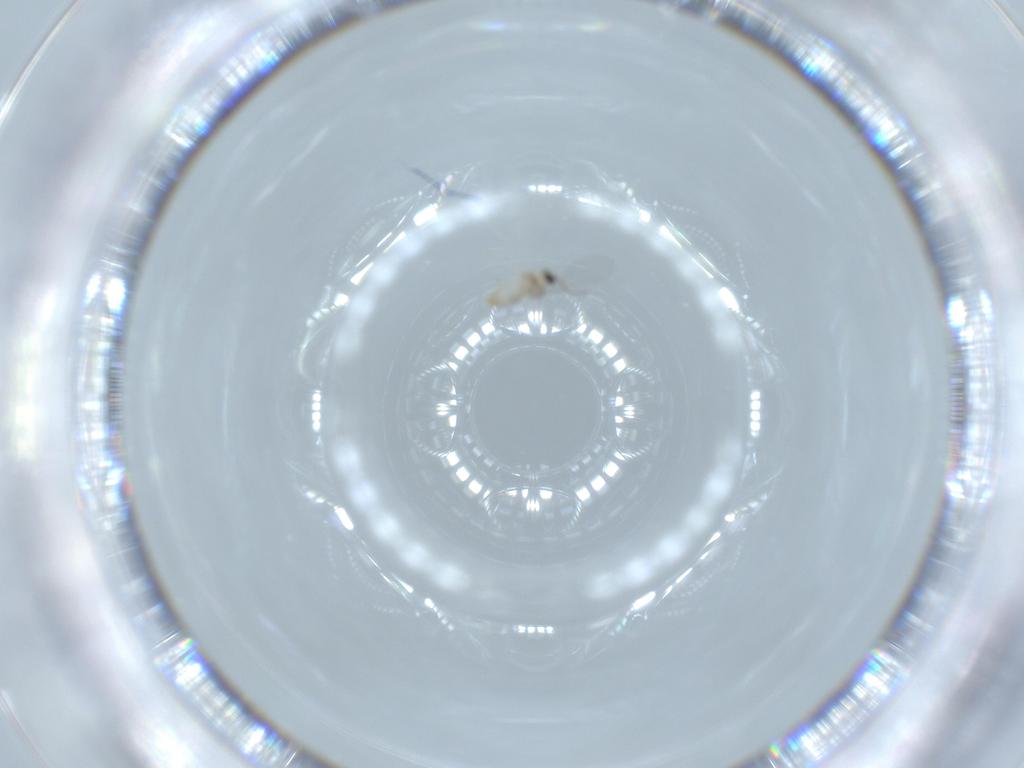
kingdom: Animalia
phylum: Arthropoda
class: Insecta
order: Diptera
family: Cecidomyiidae
